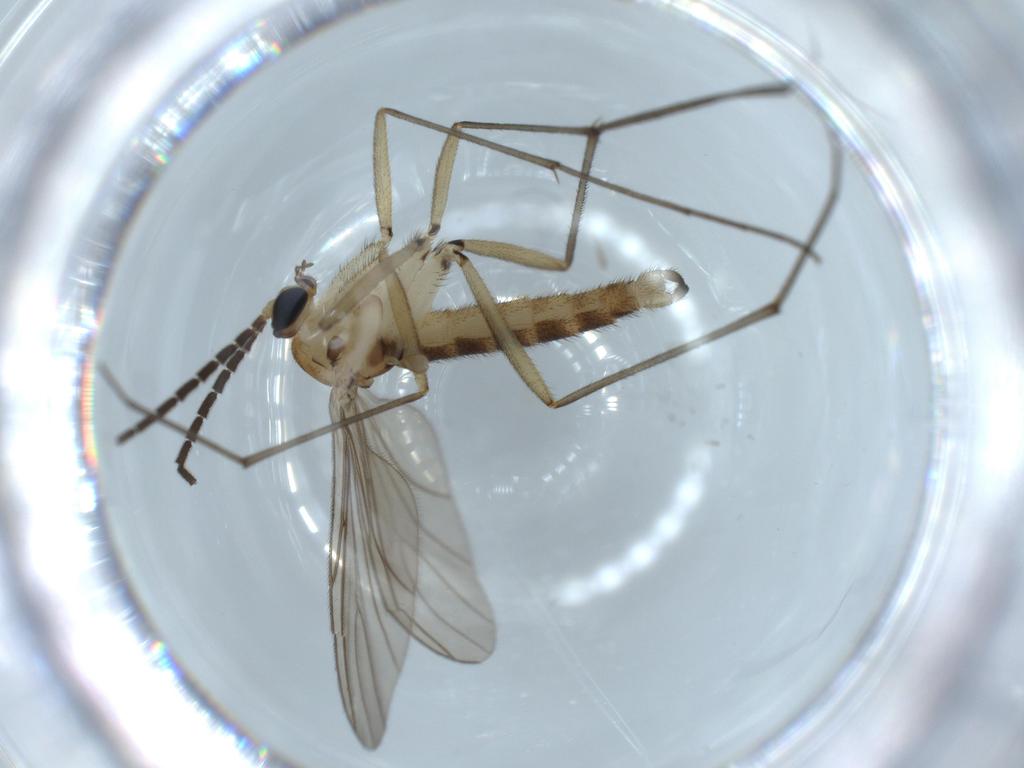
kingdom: Animalia
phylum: Arthropoda
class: Insecta
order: Diptera
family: Sciaridae
